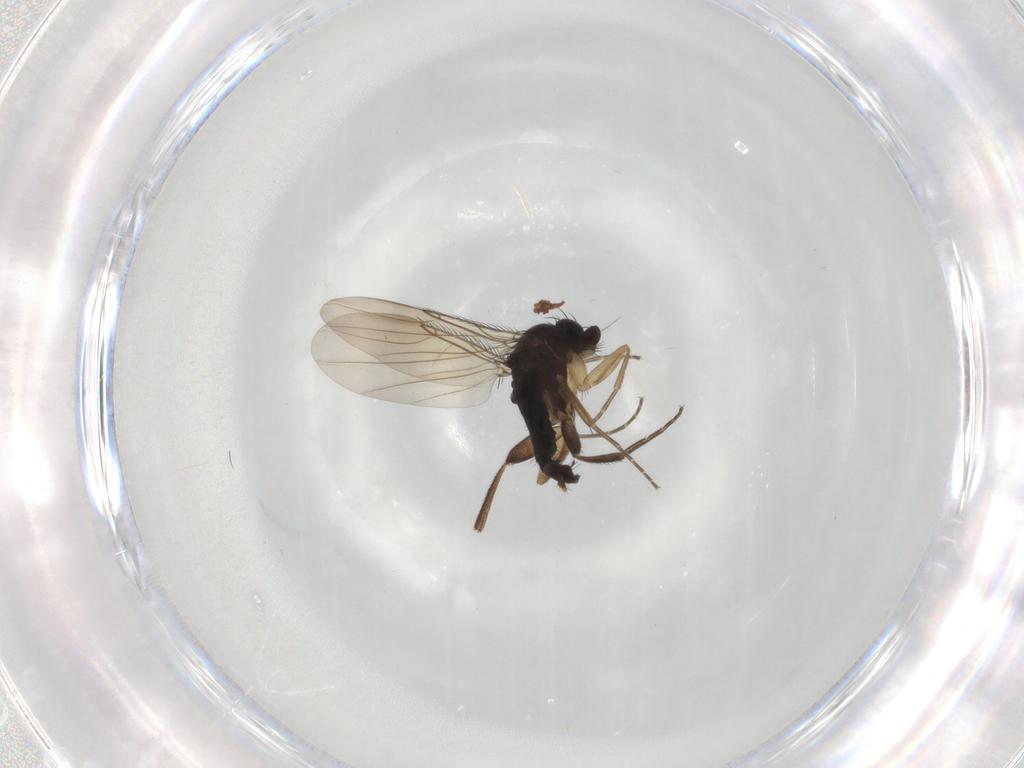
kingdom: Animalia
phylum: Arthropoda
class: Insecta
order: Diptera
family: Phoridae
